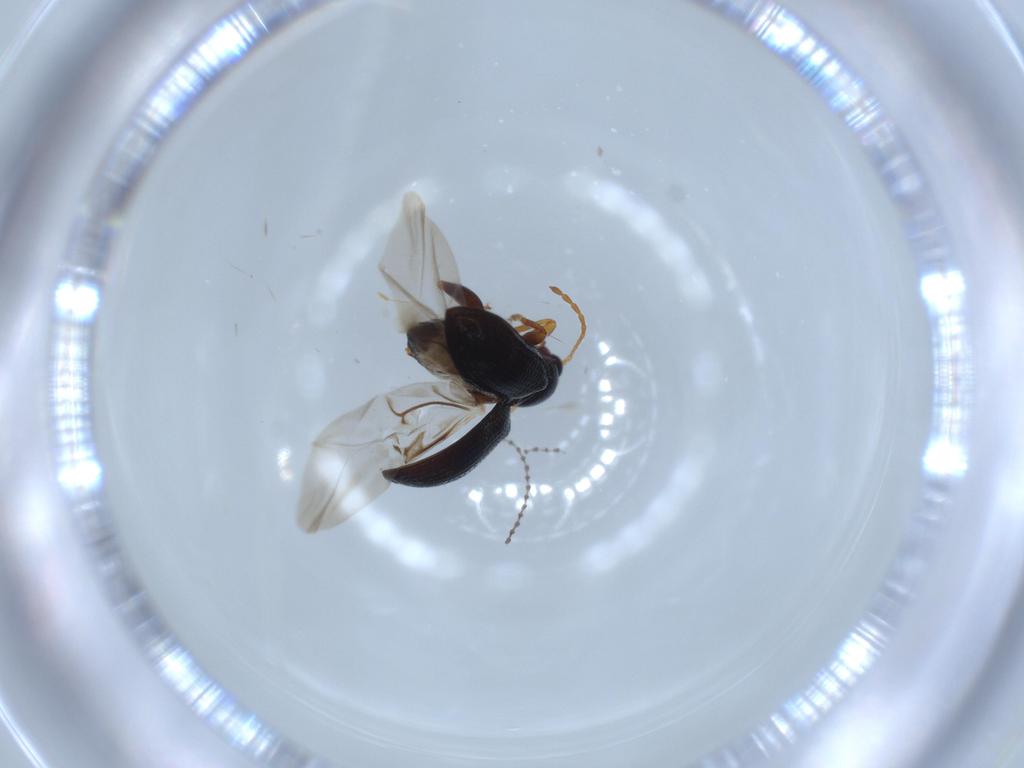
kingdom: Animalia
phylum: Arthropoda
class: Insecta
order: Coleoptera
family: Chrysomelidae
